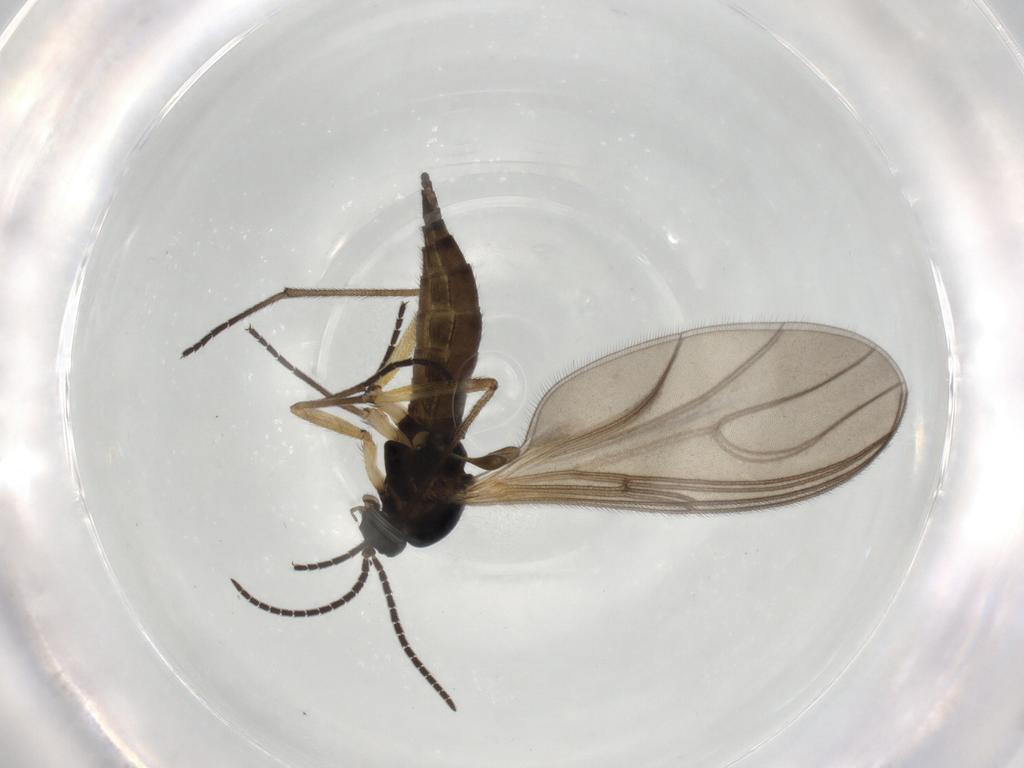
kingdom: Animalia
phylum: Arthropoda
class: Insecta
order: Diptera
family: Sciaridae
